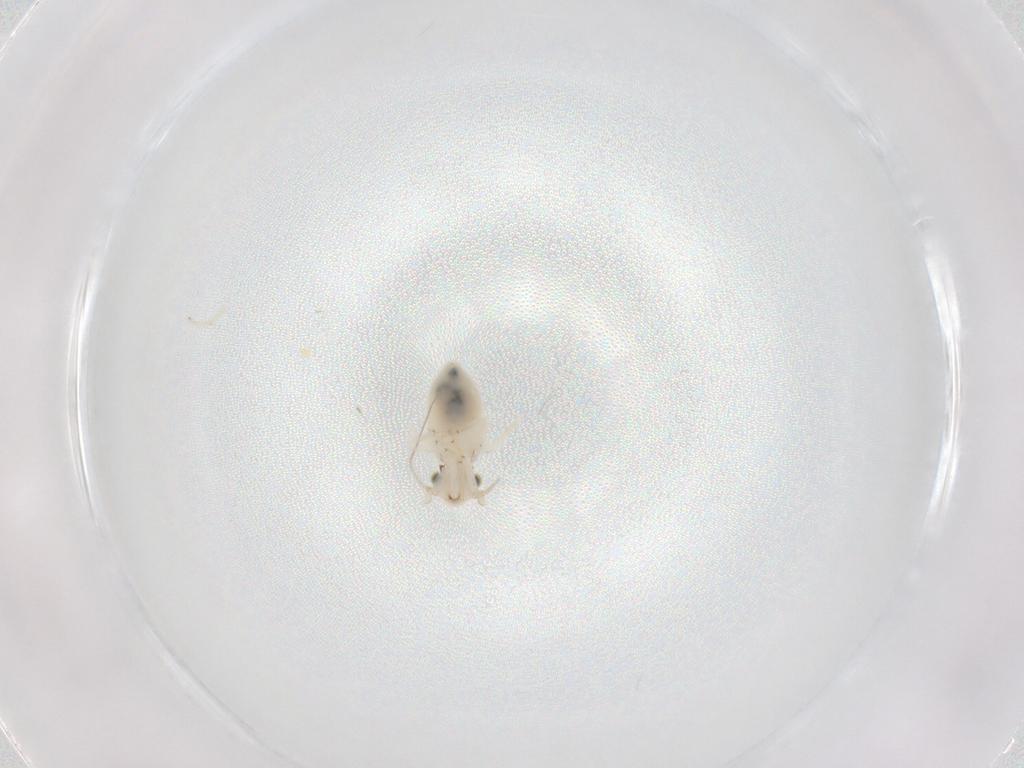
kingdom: Animalia
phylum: Arthropoda
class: Insecta
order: Psocodea
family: Lepidopsocidae
